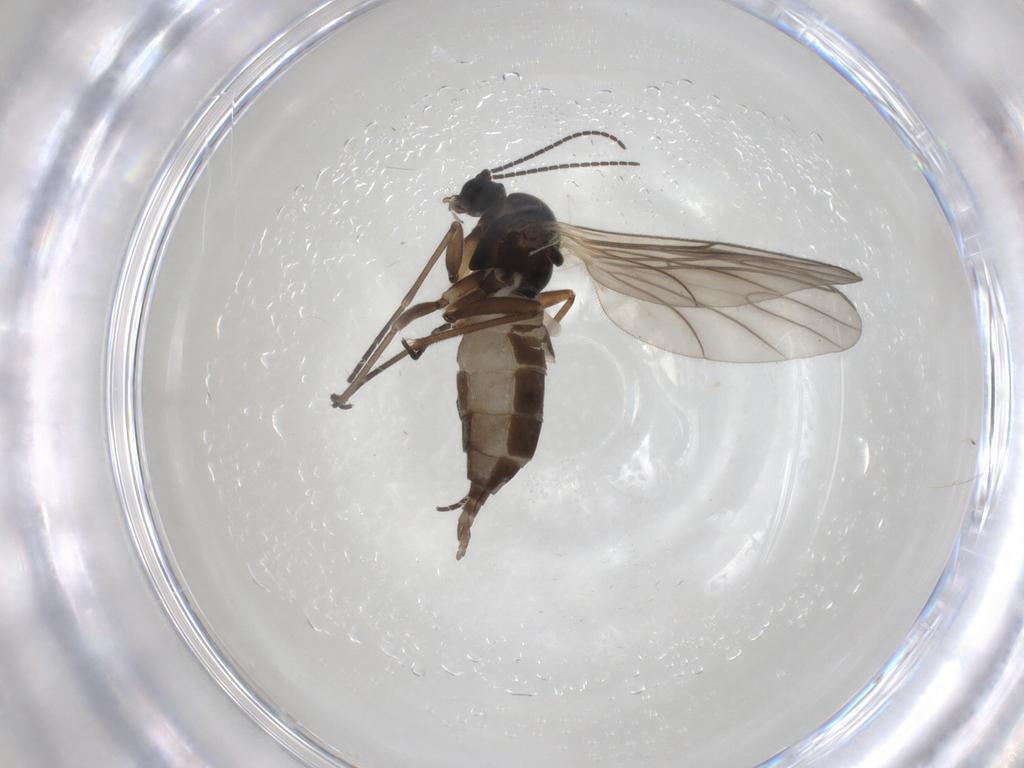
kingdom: Animalia
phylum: Arthropoda
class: Insecta
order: Diptera
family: Sciaridae
